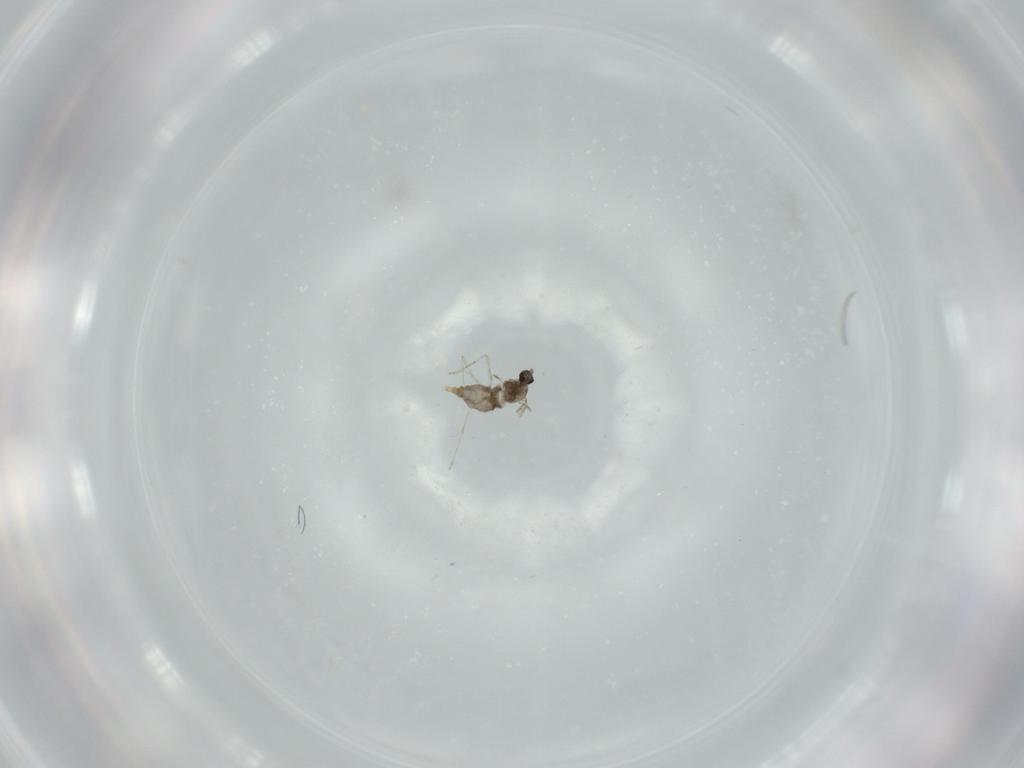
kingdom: Animalia
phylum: Arthropoda
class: Insecta
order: Diptera
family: Cecidomyiidae
